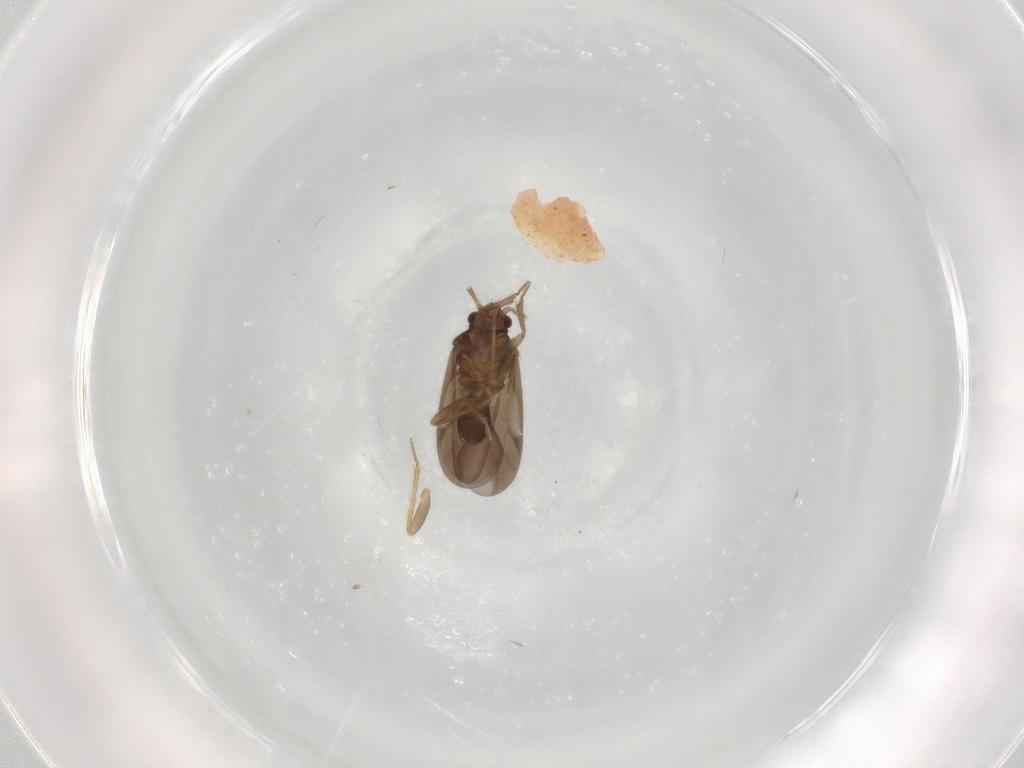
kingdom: Animalia
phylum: Arthropoda
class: Insecta
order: Hemiptera
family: Ceratocombidae
